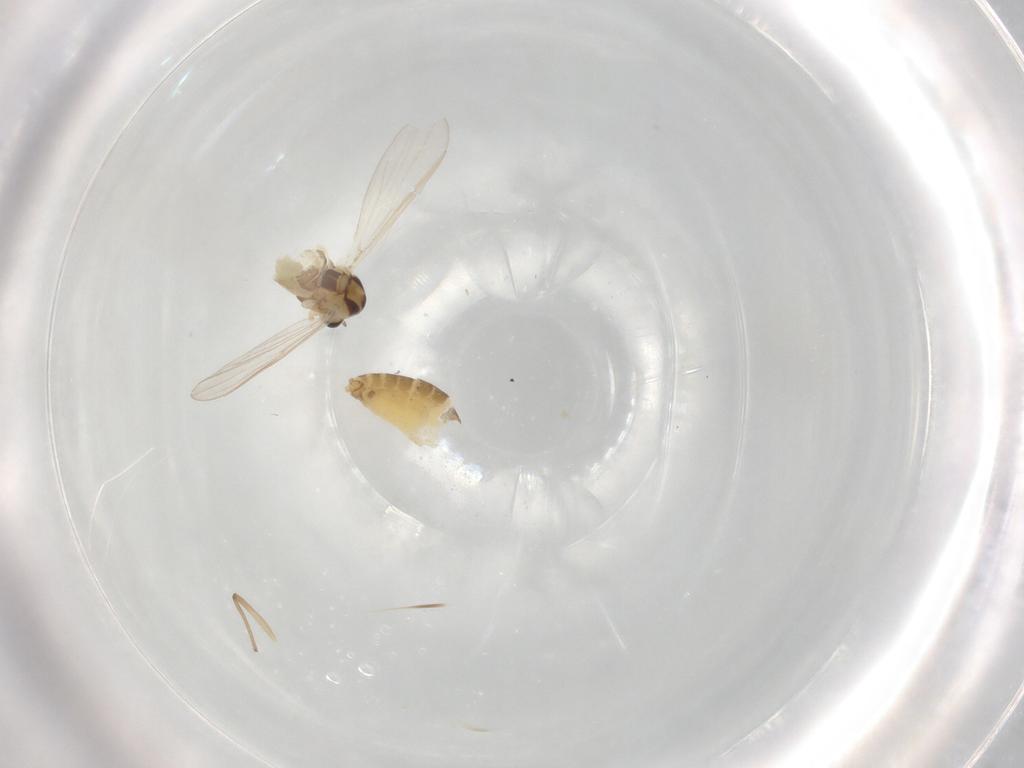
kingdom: Animalia
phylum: Arthropoda
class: Insecta
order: Diptera
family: Chironomidae
